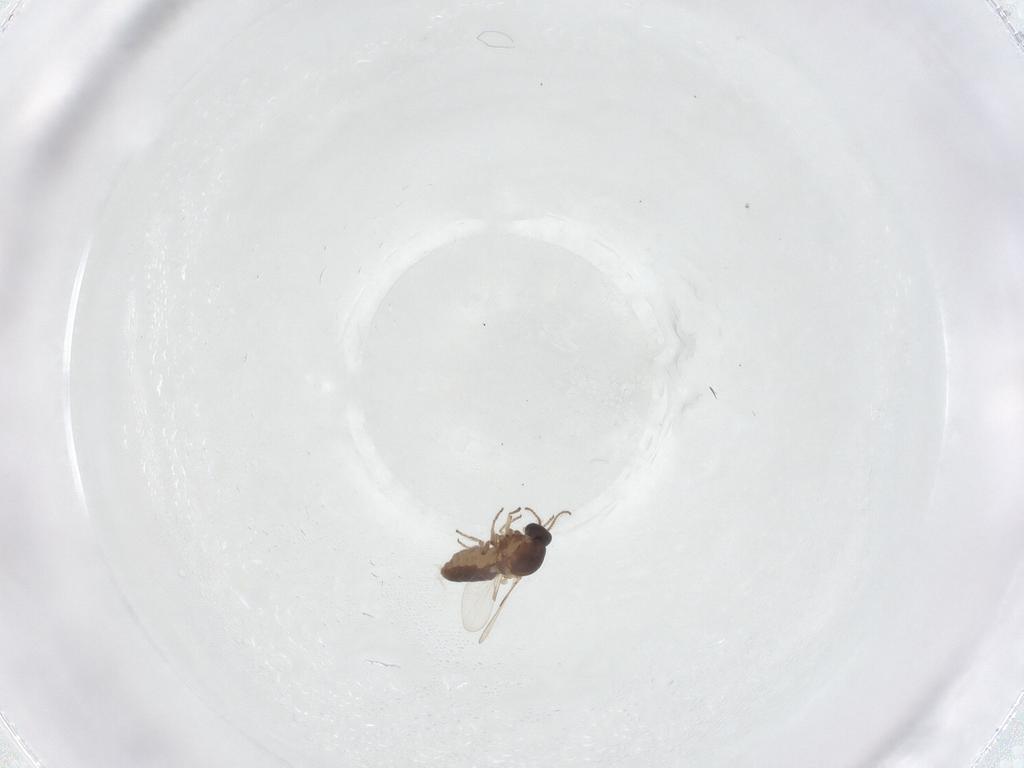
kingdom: Animalia
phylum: Arthropoda
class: Insecta
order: Diptera
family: Ceratopogonidae
